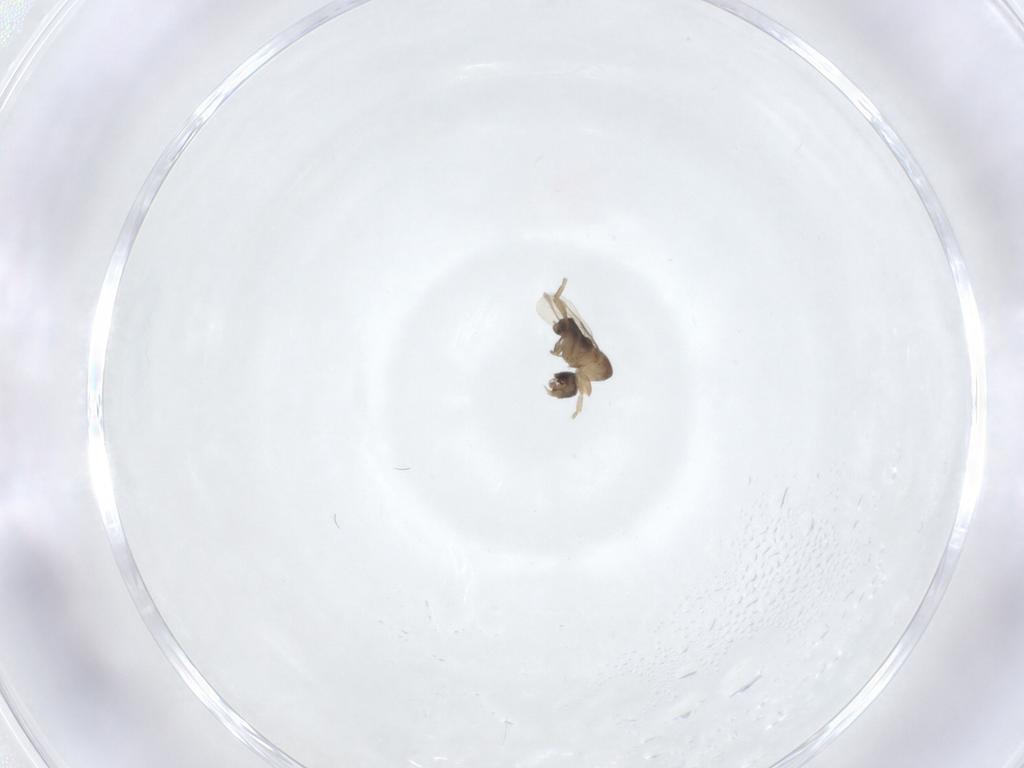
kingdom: Animalia
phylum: Arthropoda
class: Insecta
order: Diptera
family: Phoridae
